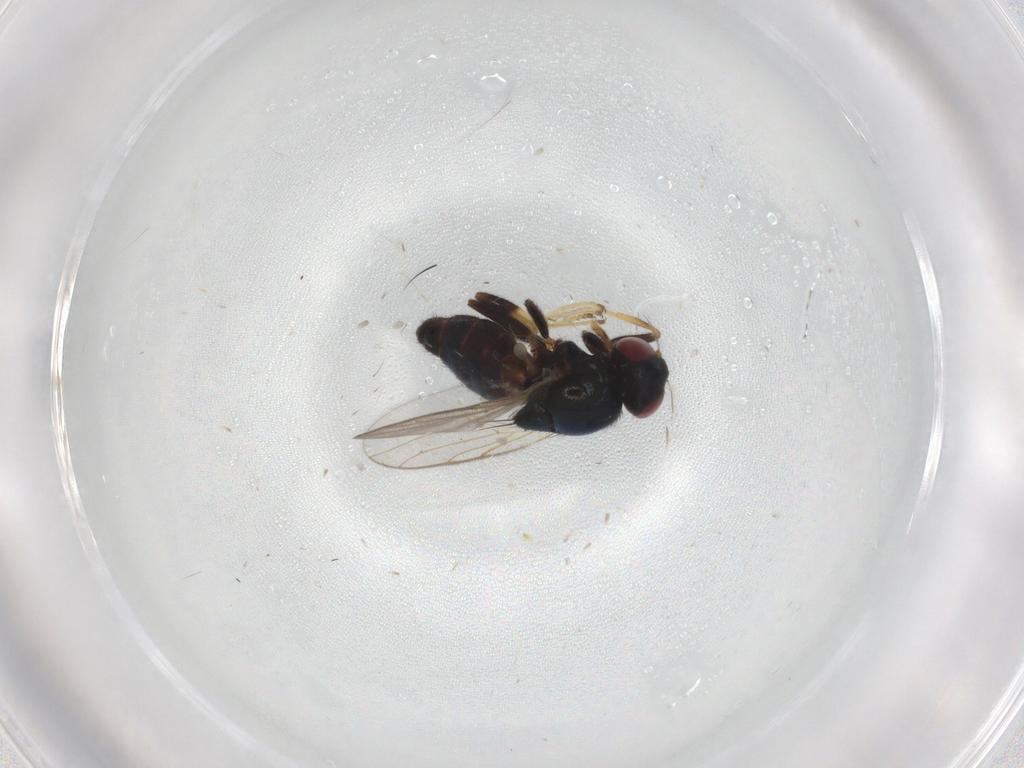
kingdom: Animalia
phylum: Arthropoda
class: Insecta
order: Diptera
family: Chloropidae
